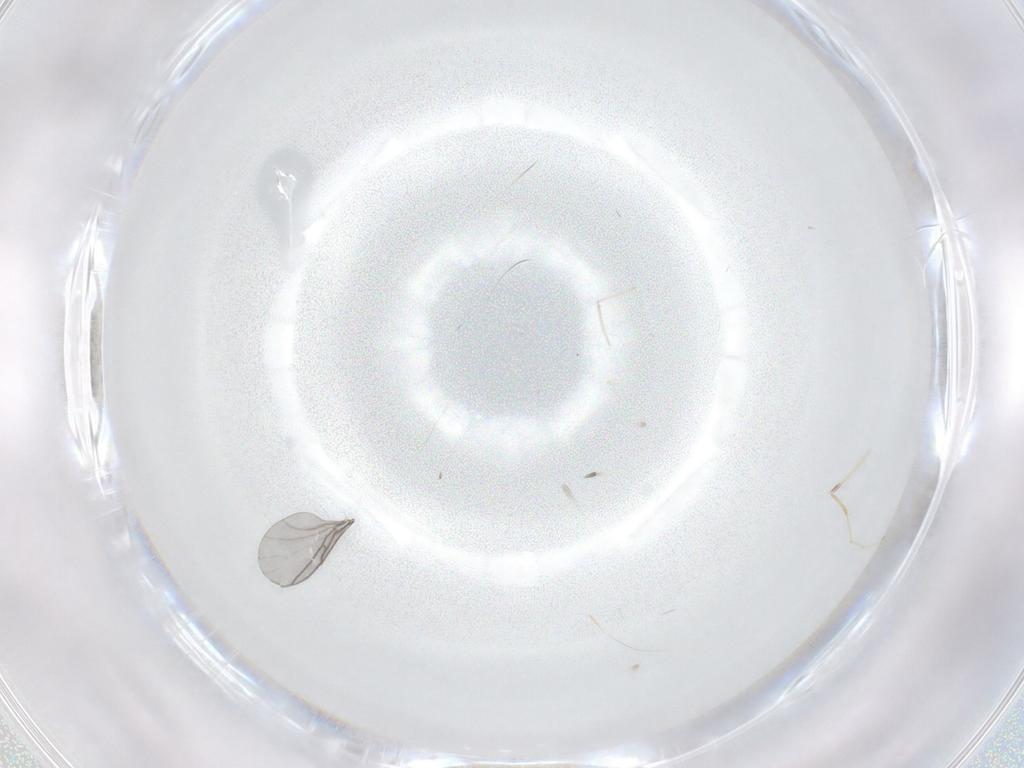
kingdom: Animalia
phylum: Arthropoda
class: Insecta
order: Diptera
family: Cecidomyiidae
